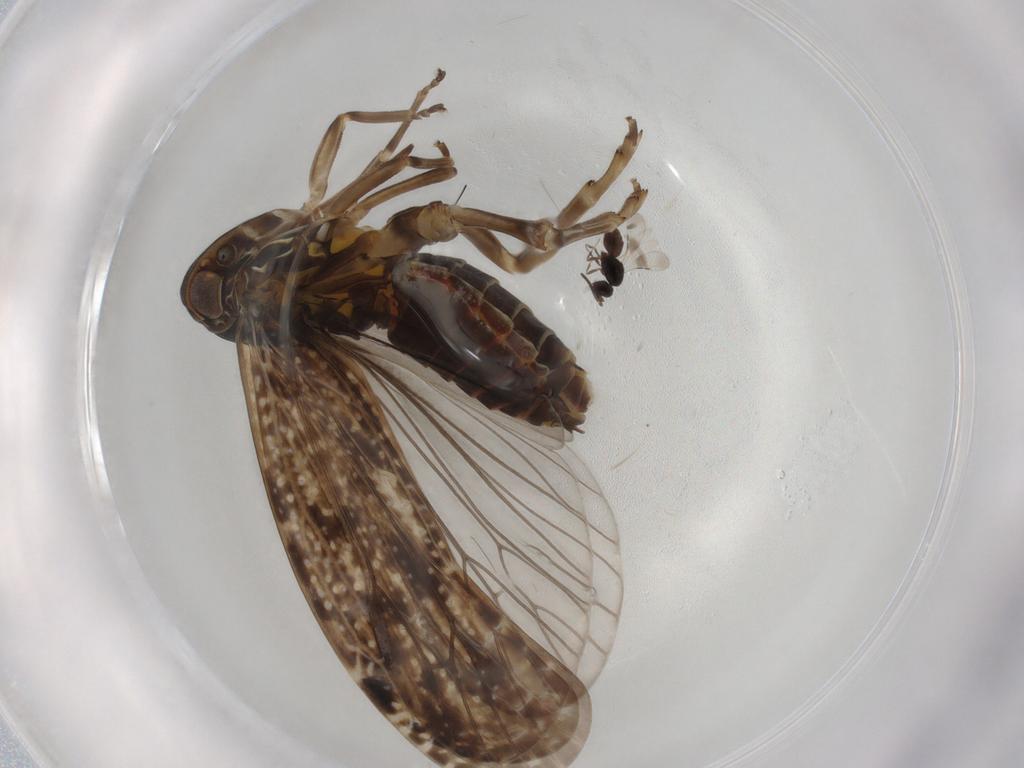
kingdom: Animalia
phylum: Arthropoda
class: Insecta
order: Hemiptera
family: Achilidae
